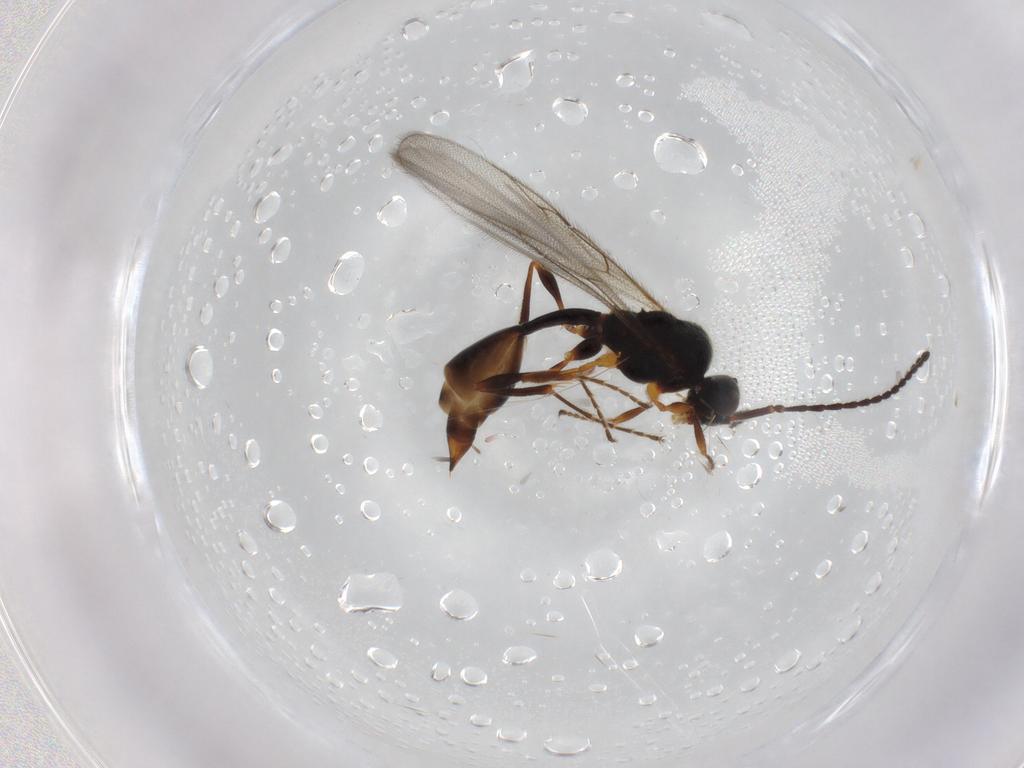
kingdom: Animalia
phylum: Arthropoda
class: Insecta
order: Hymenoptera
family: Diapriidae
